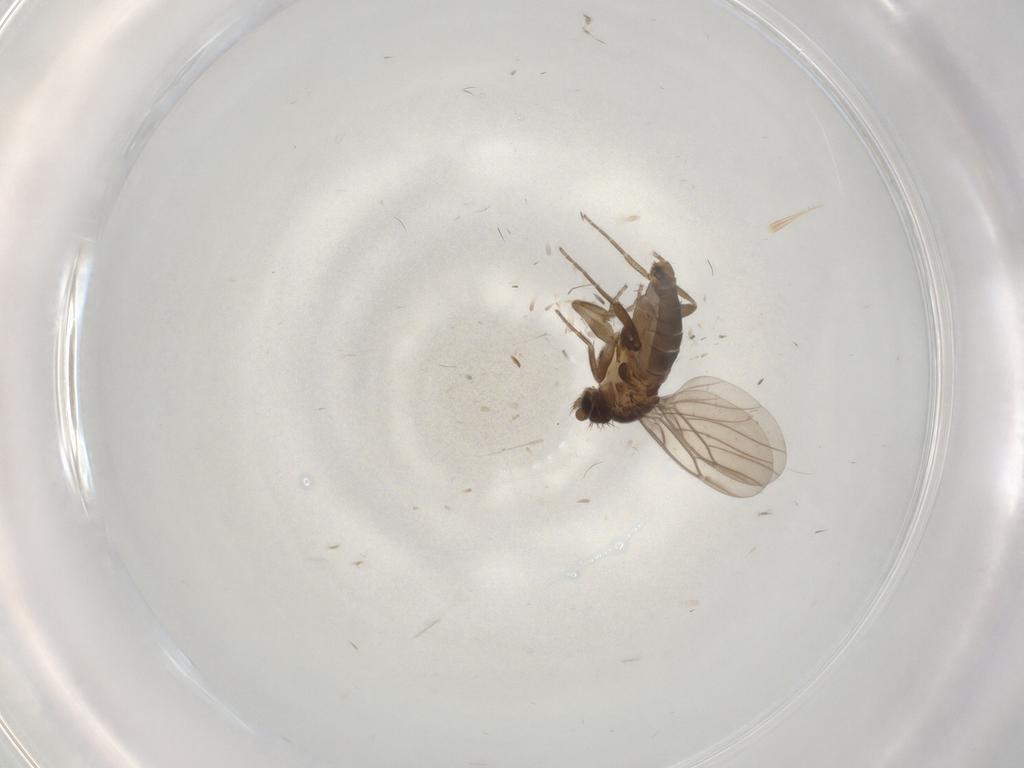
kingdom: Animalia
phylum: Arthropoda
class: Insecta
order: Diptera
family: Phoridae
